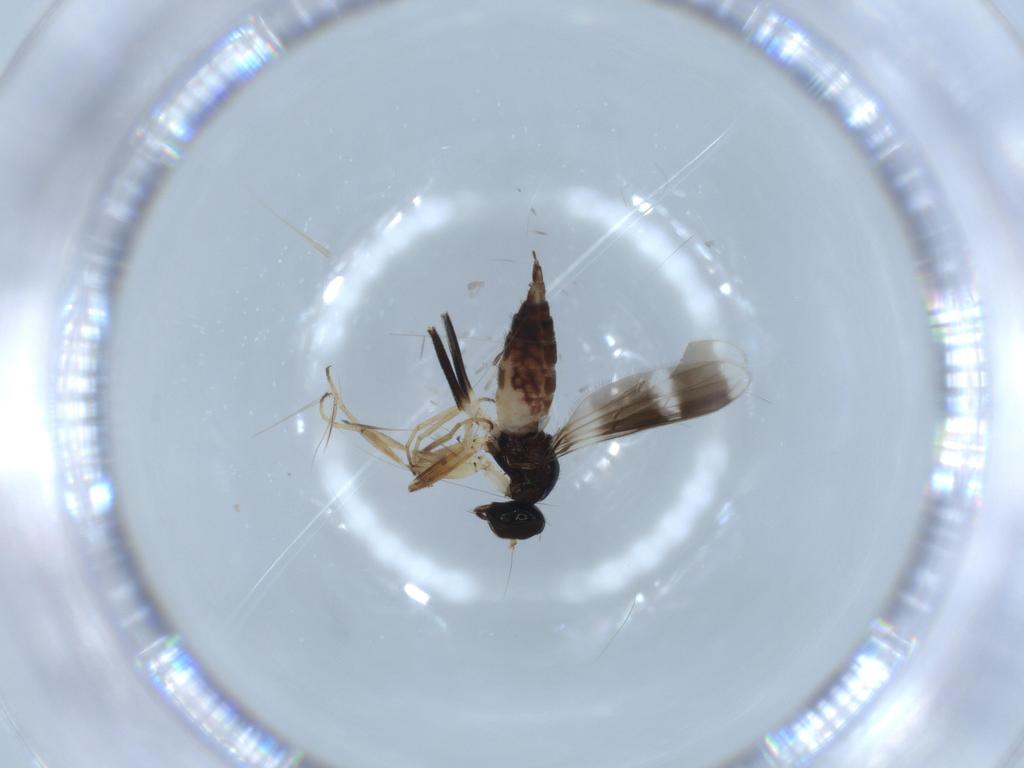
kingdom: Animalia
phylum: Arthropoda
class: Insecta
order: Diptera
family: Hybotidae
